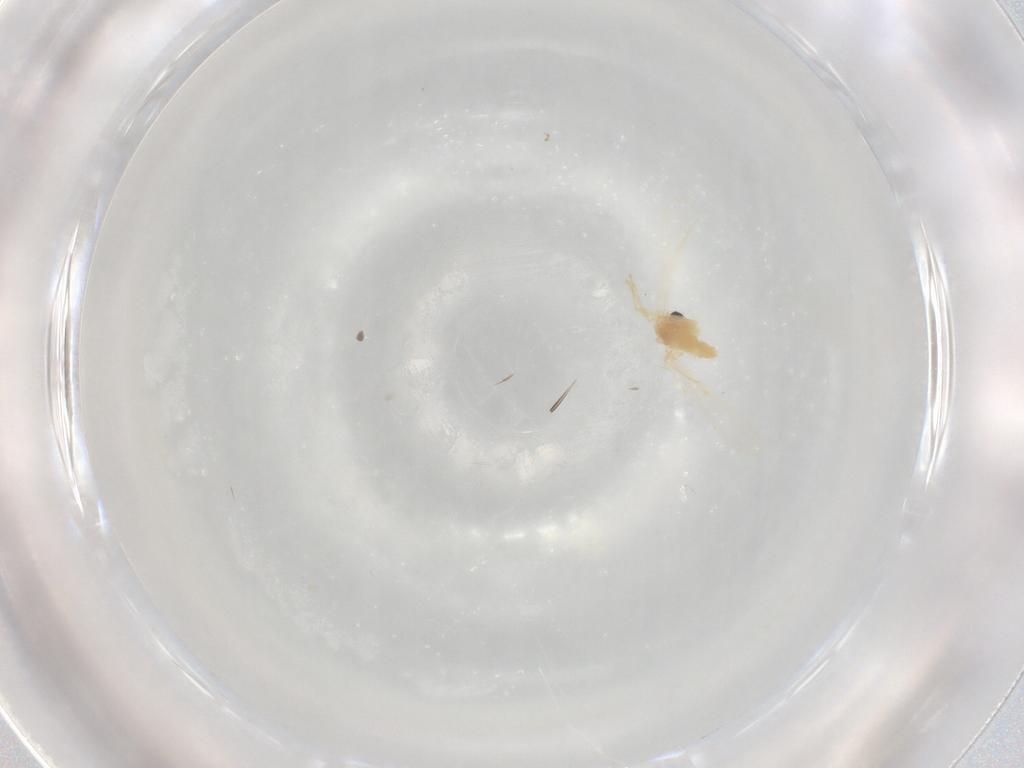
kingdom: Animalia
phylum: Arthropoda
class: Insecta
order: Diptera
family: Chironomidae
